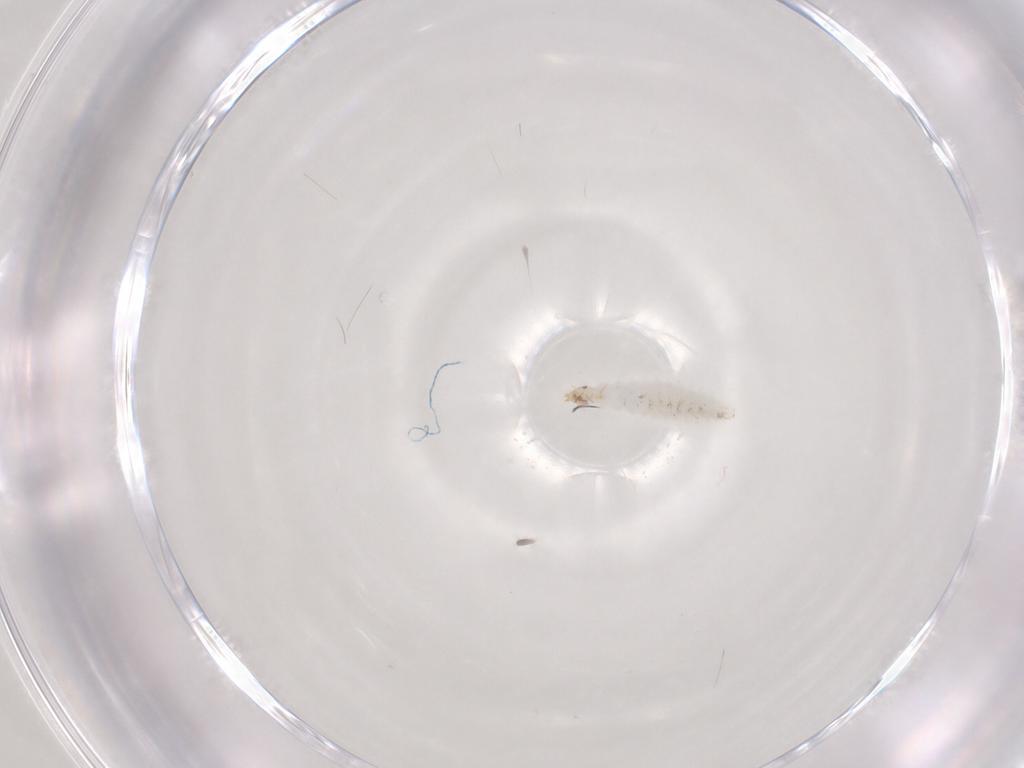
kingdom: Animalia
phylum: Arthropoda
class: Insecta
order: Diptera
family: Stratiomyidae
